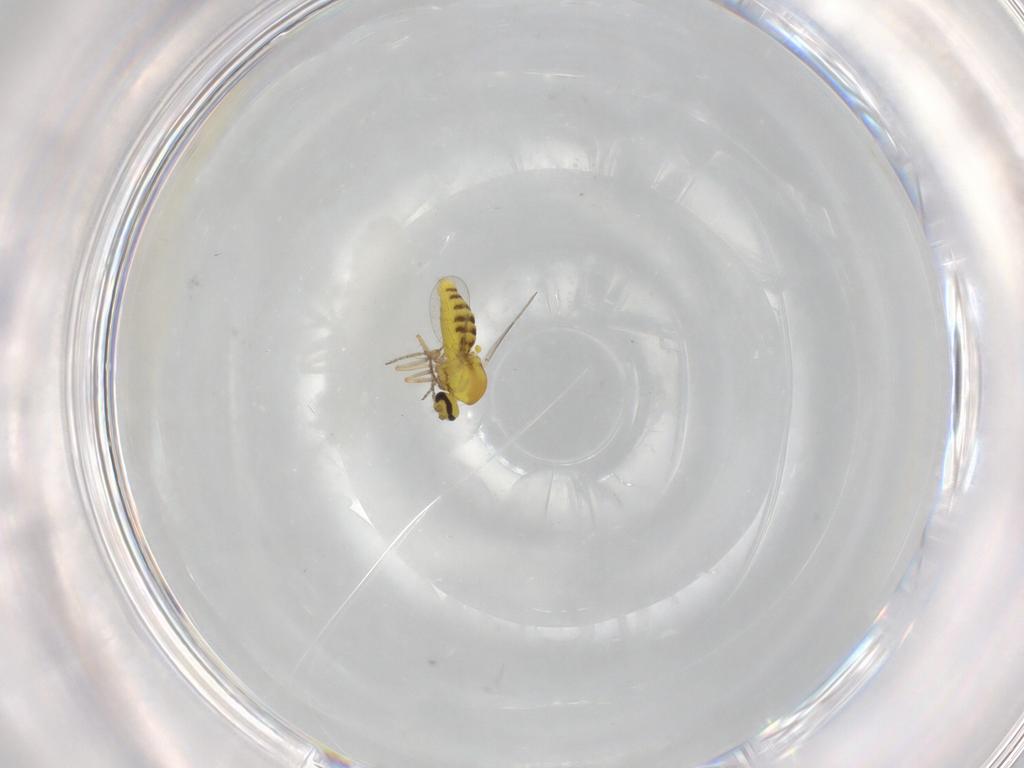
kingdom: Animalia
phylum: Arthropoda
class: Insecta
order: Diptera
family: Ceratopogonidae
